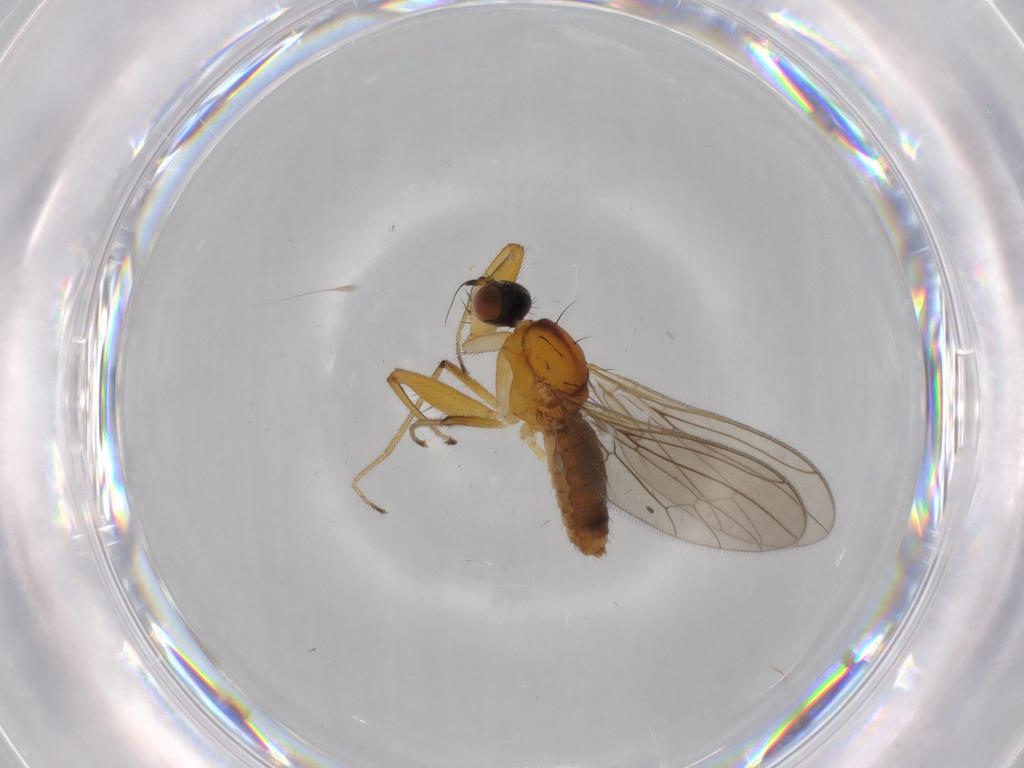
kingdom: Animalia
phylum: Arthropoda
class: Insecta
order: Diptera
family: Empididae
